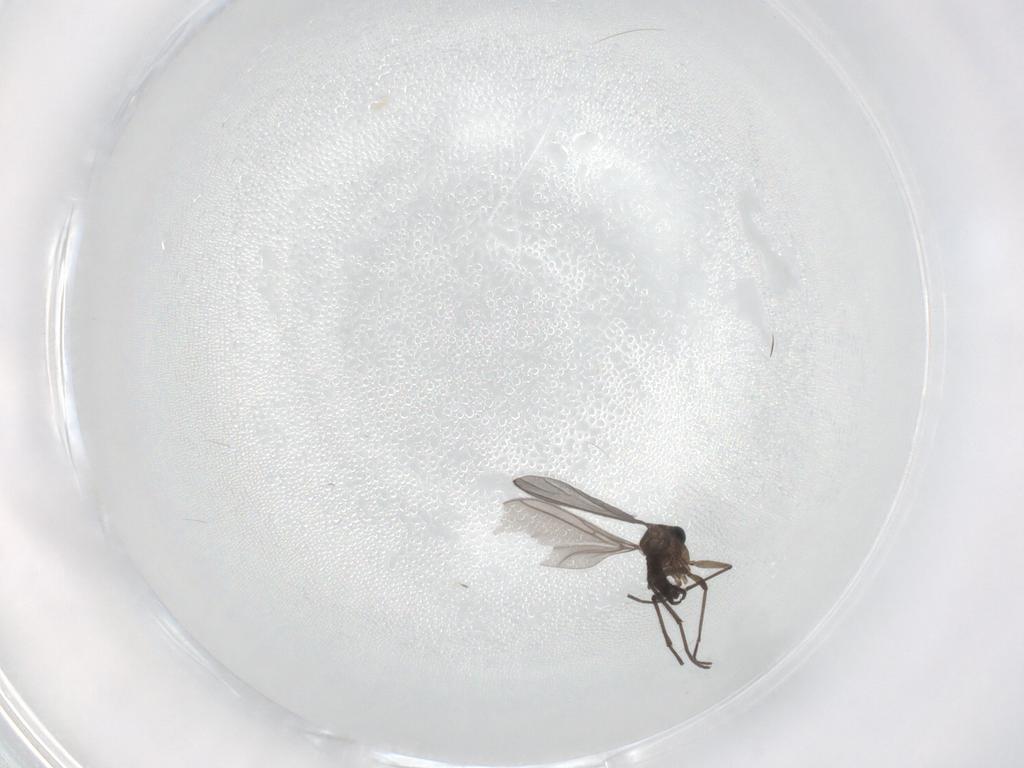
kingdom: Animalia
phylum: Arthropoda
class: Insecta
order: Diptera
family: Sciaridae
